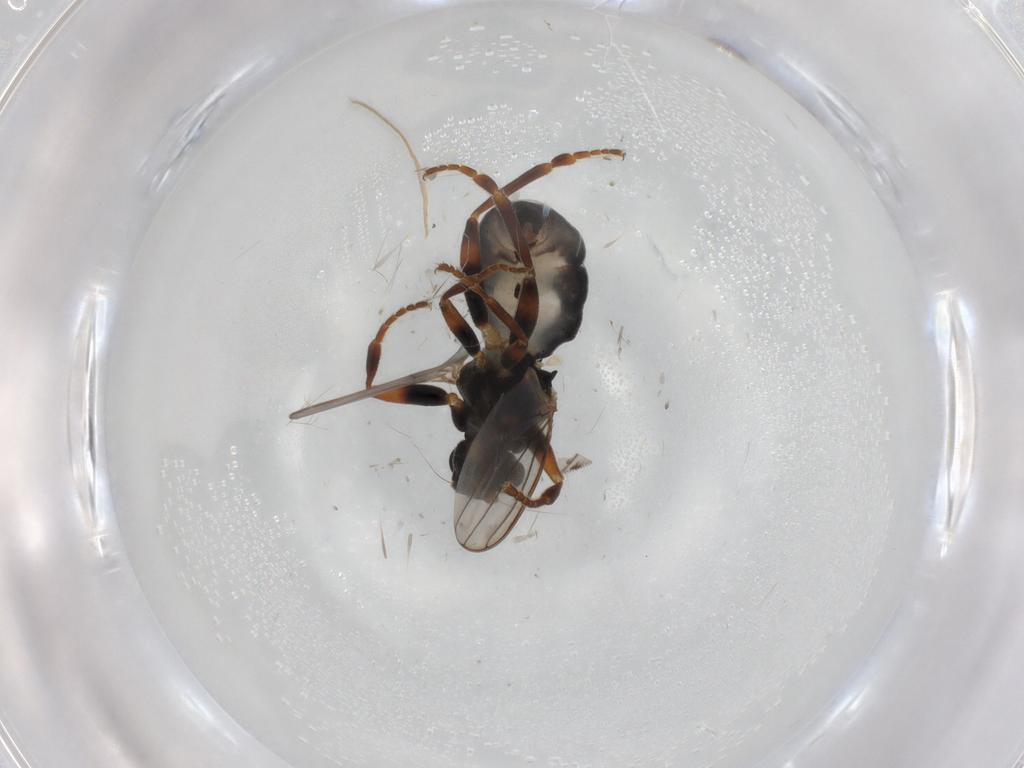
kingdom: Animalia
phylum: Arthropoda
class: Insecta
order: Diptera
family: Sphaeroceridae
